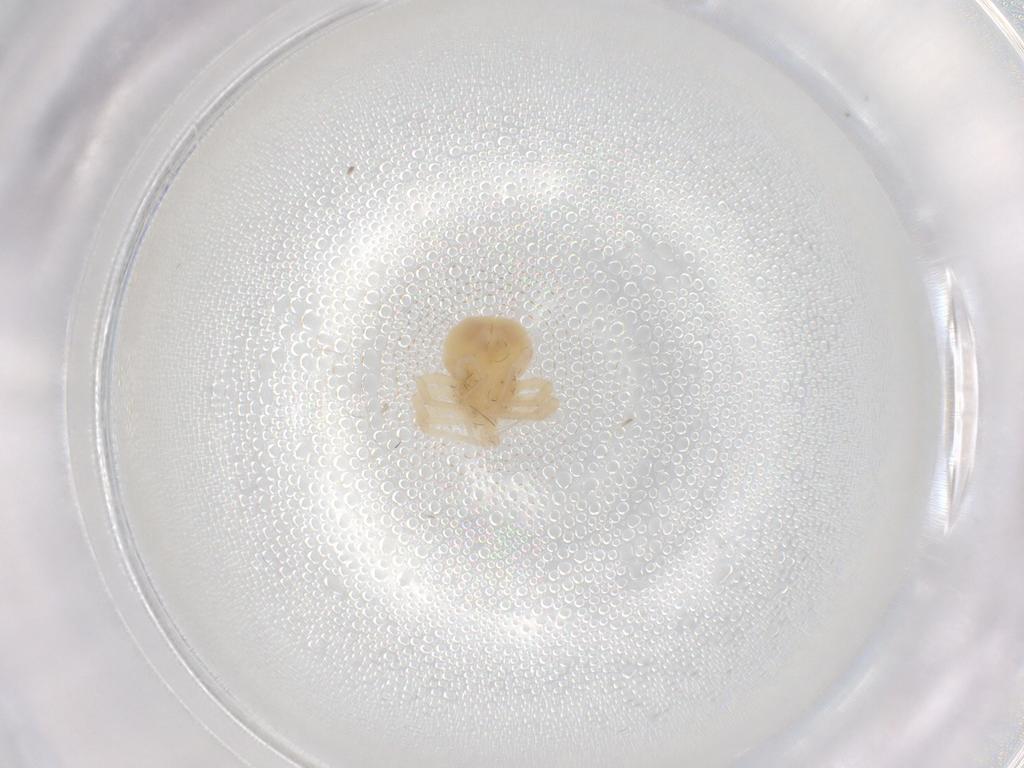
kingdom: Animalia
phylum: Arthropoda
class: Arachnida
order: Trombidiformes
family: Anystidae
